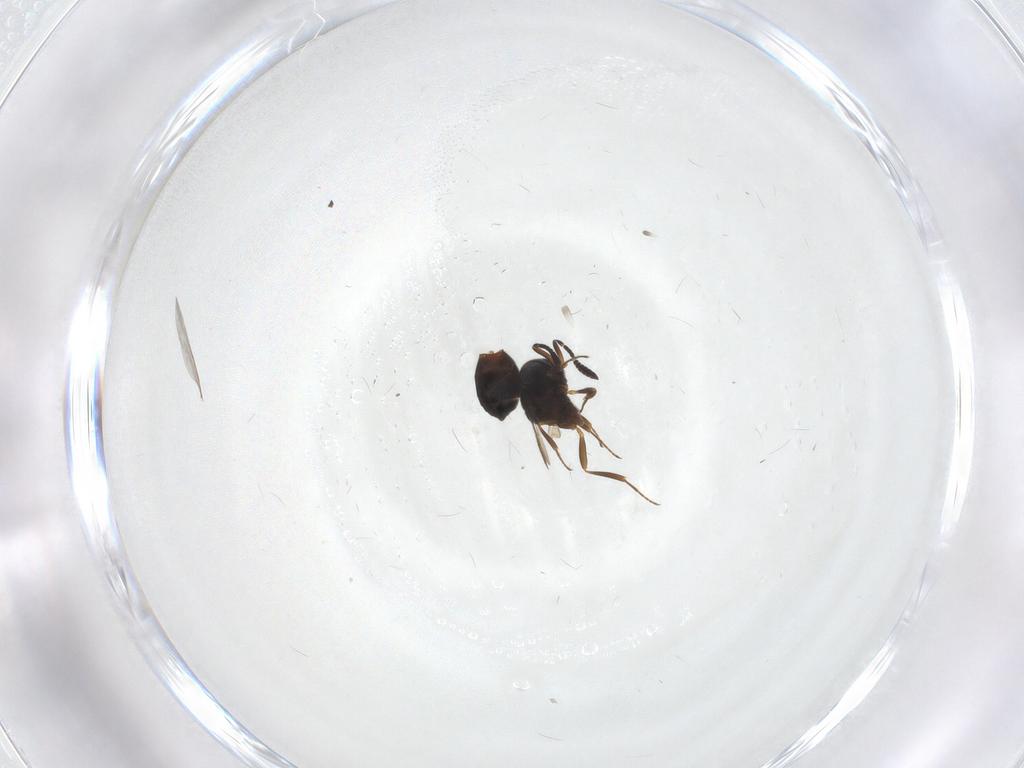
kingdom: Animalia
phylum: Arthropoda
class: Insecta
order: Hymenoptera
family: Scelionidae
